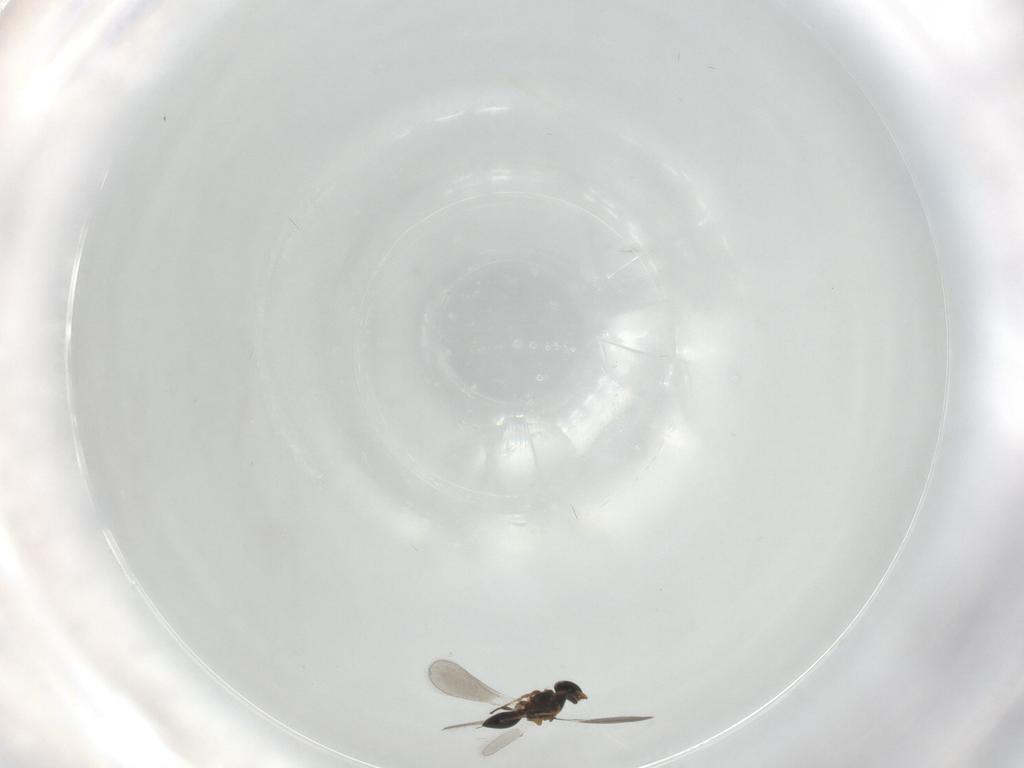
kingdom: Animalia
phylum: Arthropoda
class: Insecta
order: Hymenoptera
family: Platygastridae
